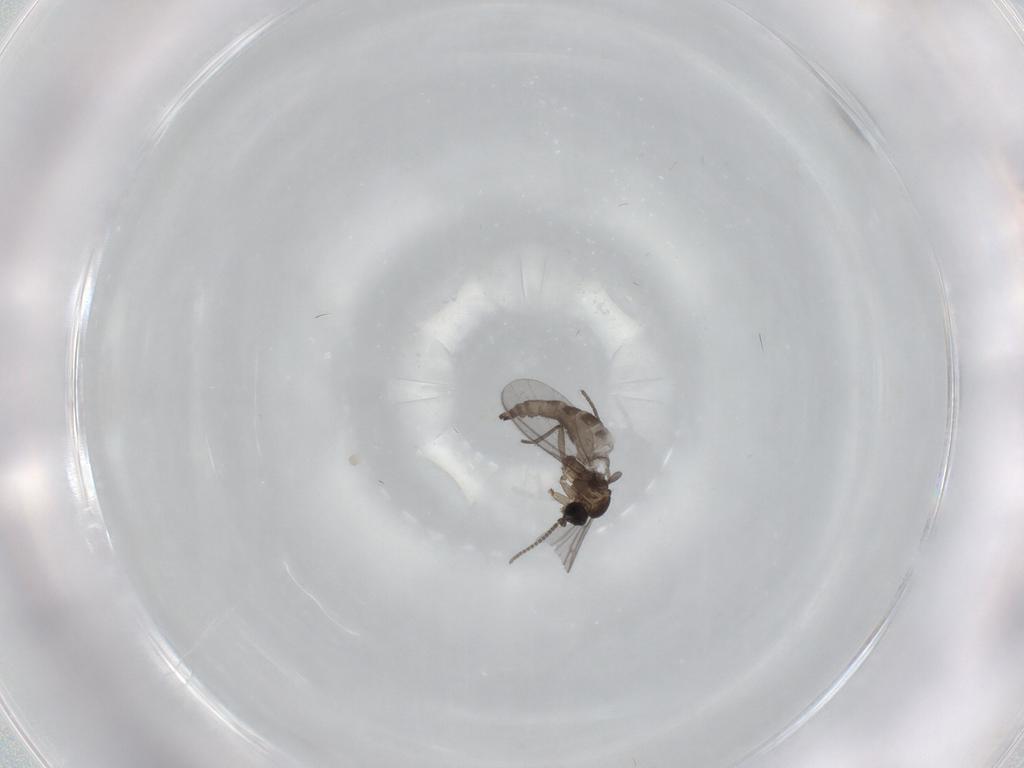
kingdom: Animalia
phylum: Arthropoda
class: Insecta
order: Diptera
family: Sciaridae
